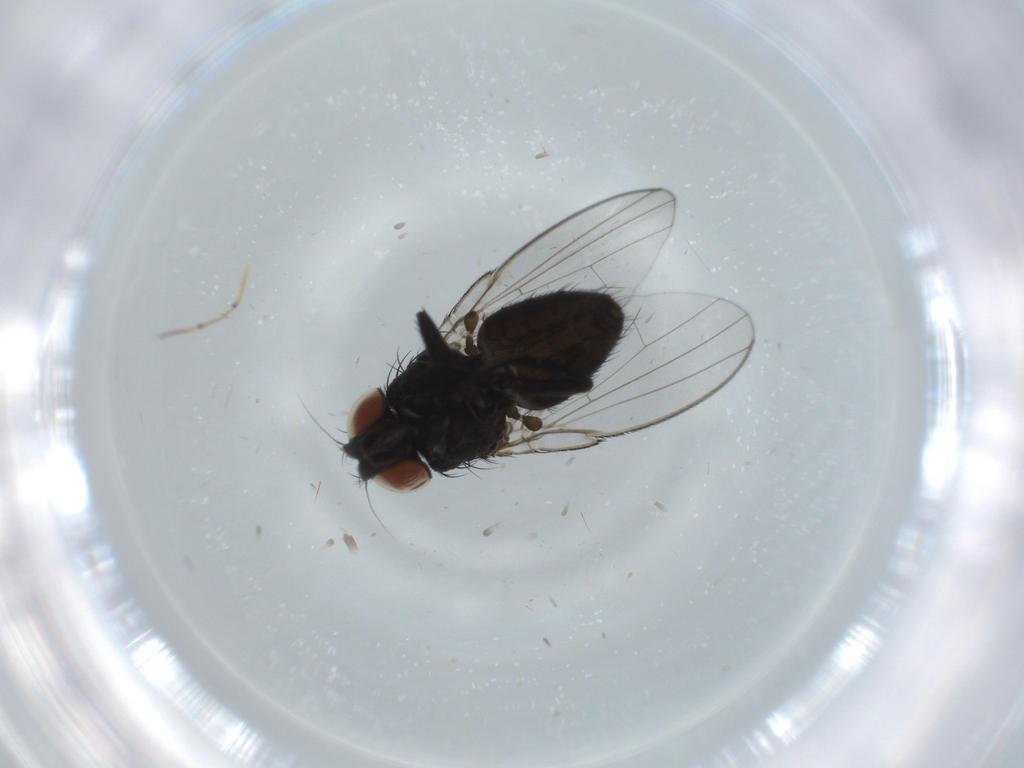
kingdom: Animalia
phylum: Arthropoda
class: Insecta
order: Diptera
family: Milichiidae
